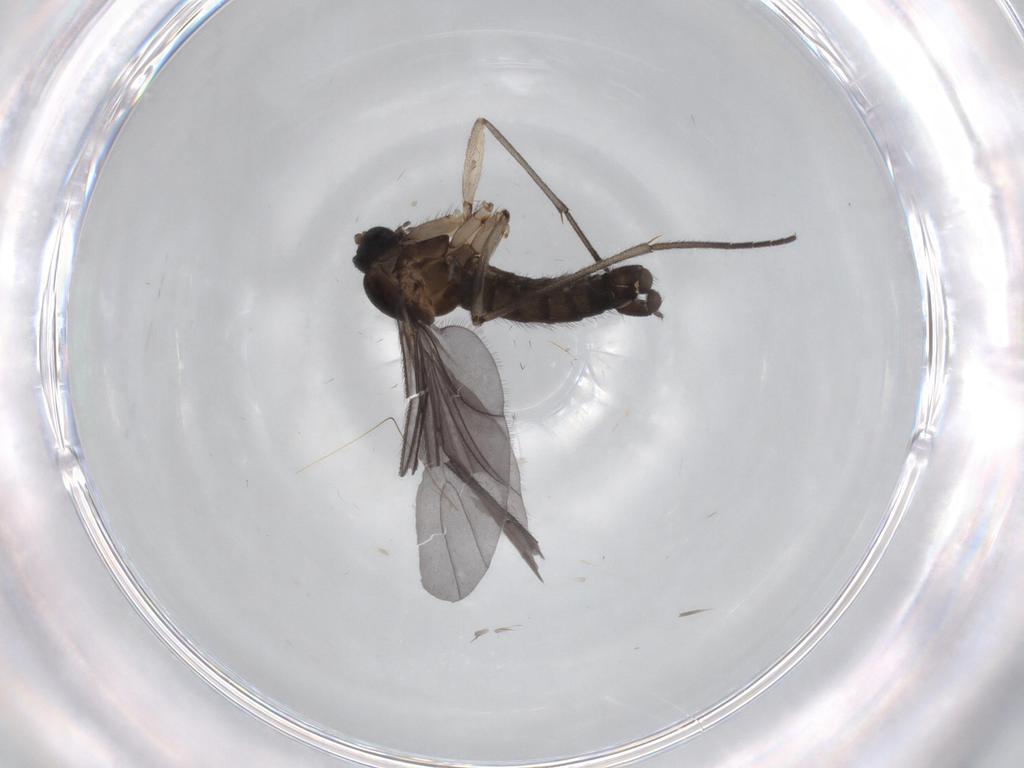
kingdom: Animalia
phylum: Arthropoda
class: Insecta
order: Diptera
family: Sciaridae
